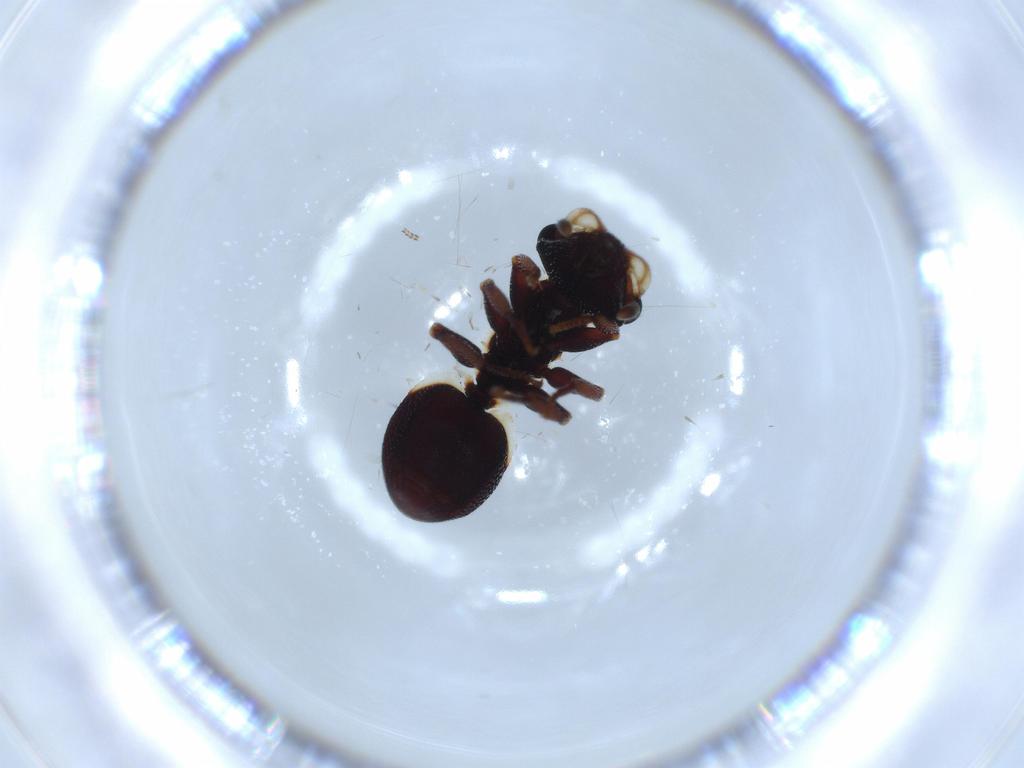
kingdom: Animalia
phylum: Arthropoda
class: Insecta
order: Hymenoptera
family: Formicidae
